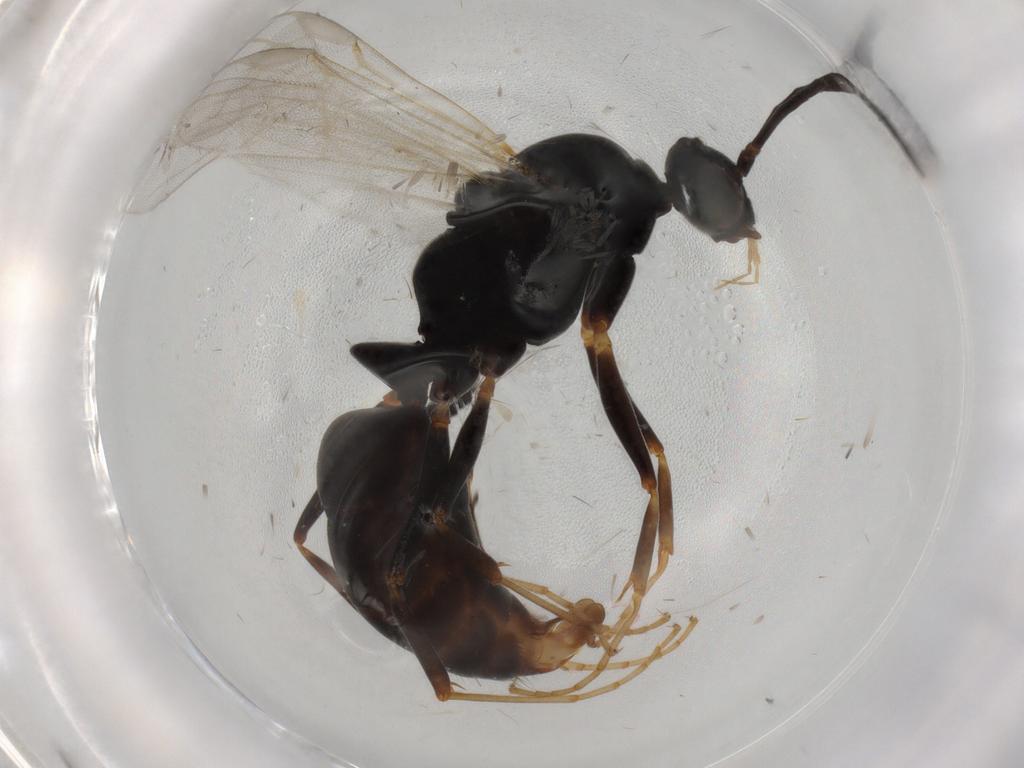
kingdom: Animalia
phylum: Arthropoda
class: Insecta
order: Hymenoptera
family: Formicidae
